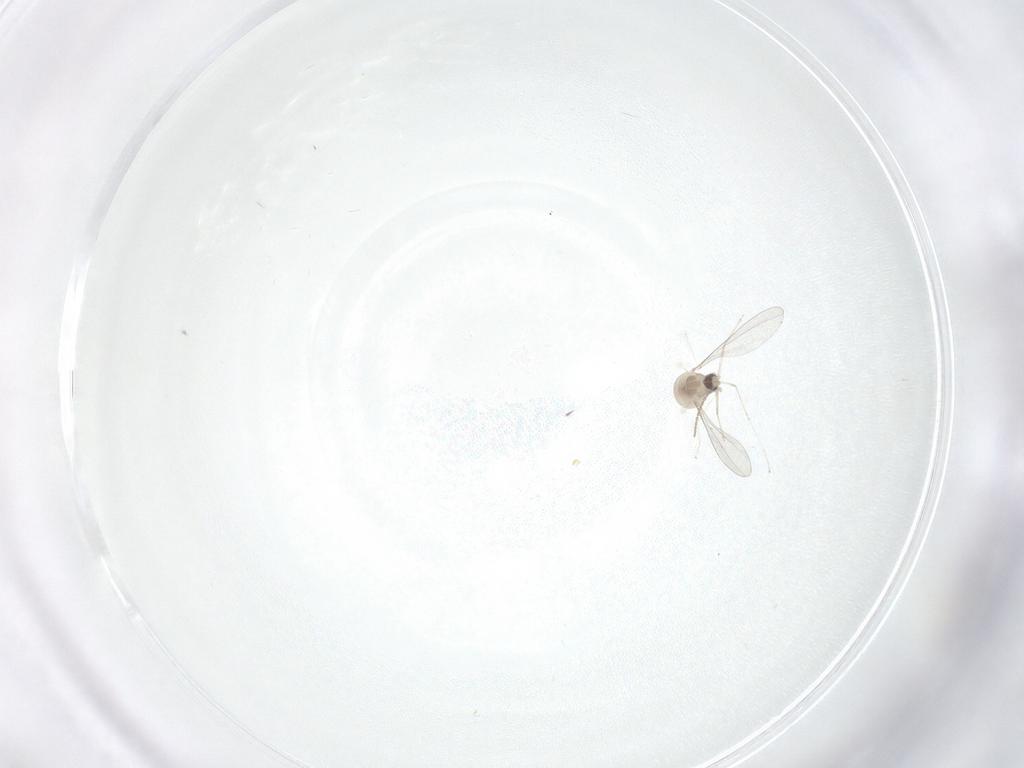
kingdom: Animalia
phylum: Arthropoda
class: Insecta
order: Diptera
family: Cecidomyiidae
